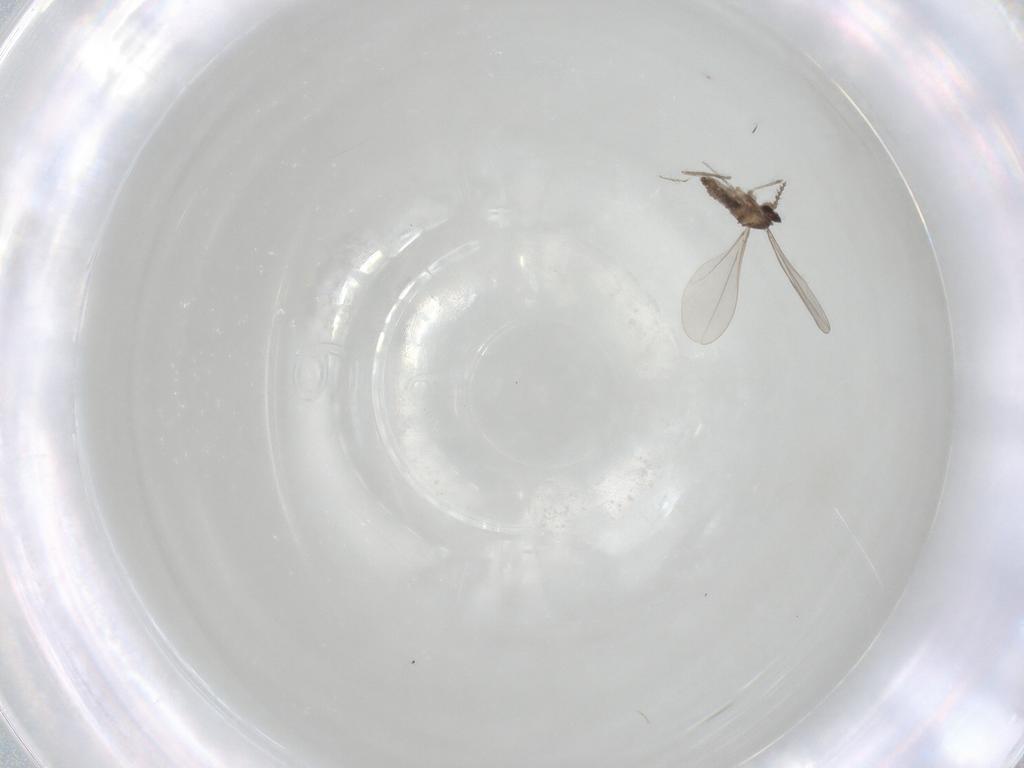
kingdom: Animalia
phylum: Arthropoda
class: Insecta
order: Diptera
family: Cecidomyiidae
